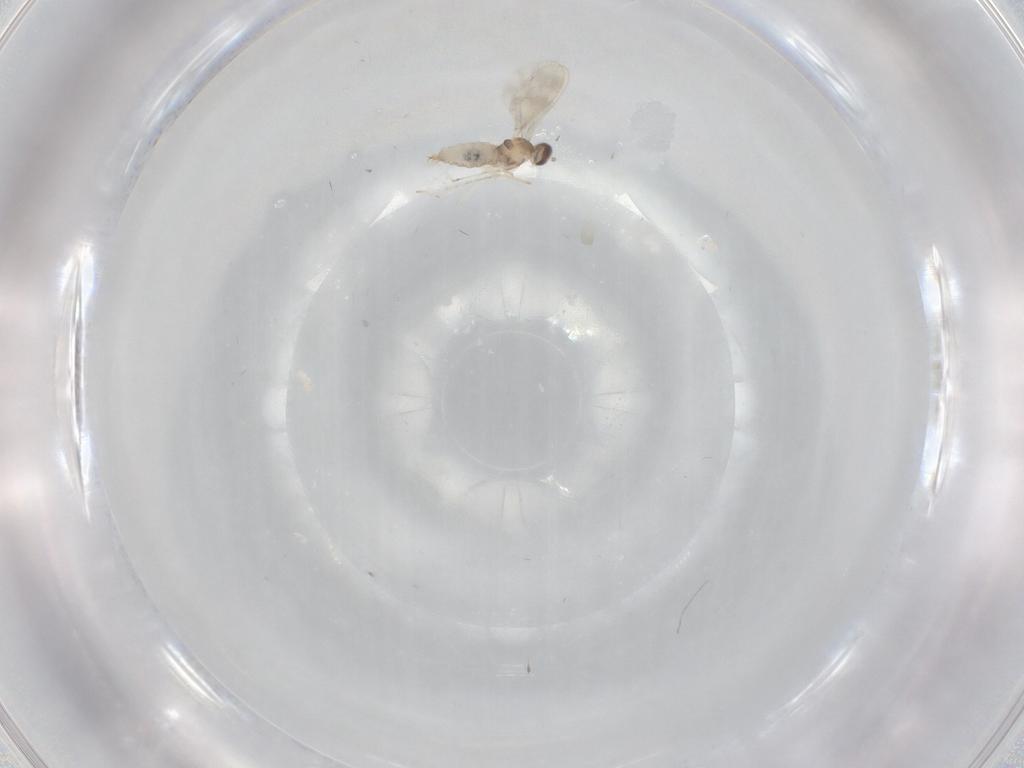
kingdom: Animalia
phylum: Arthropoda
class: Insecta
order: Diptera
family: Cecidomyiidae
